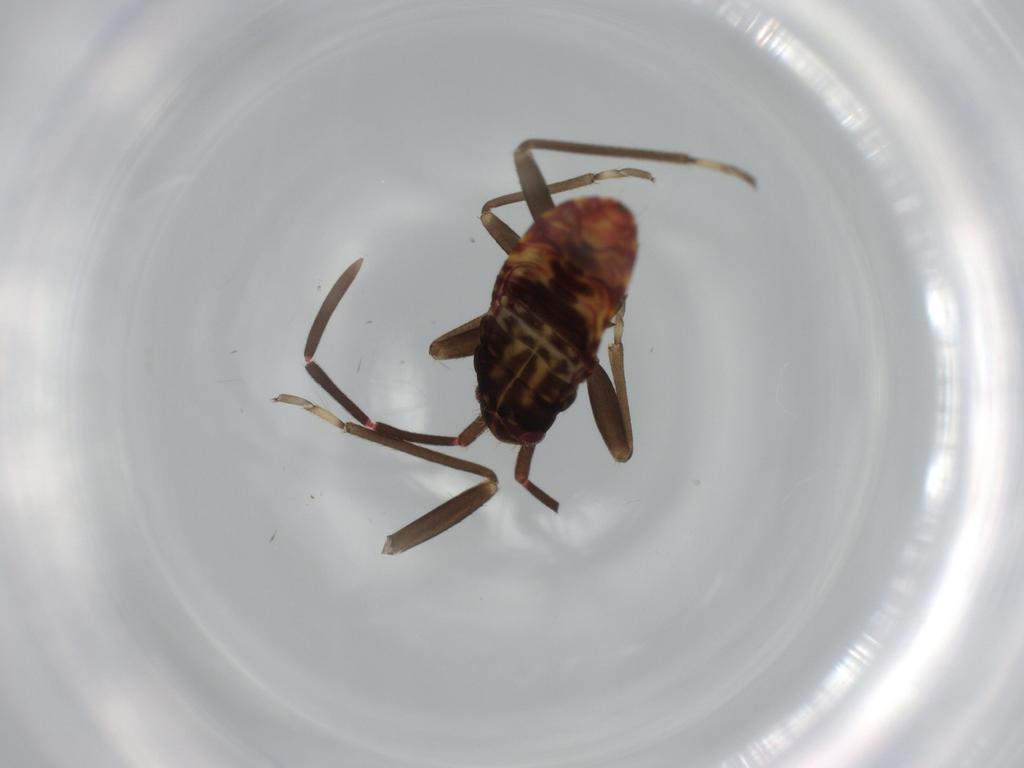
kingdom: Animalia
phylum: Arthropoda
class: Insecta
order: Hemiptera
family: Rhyparochromidae
